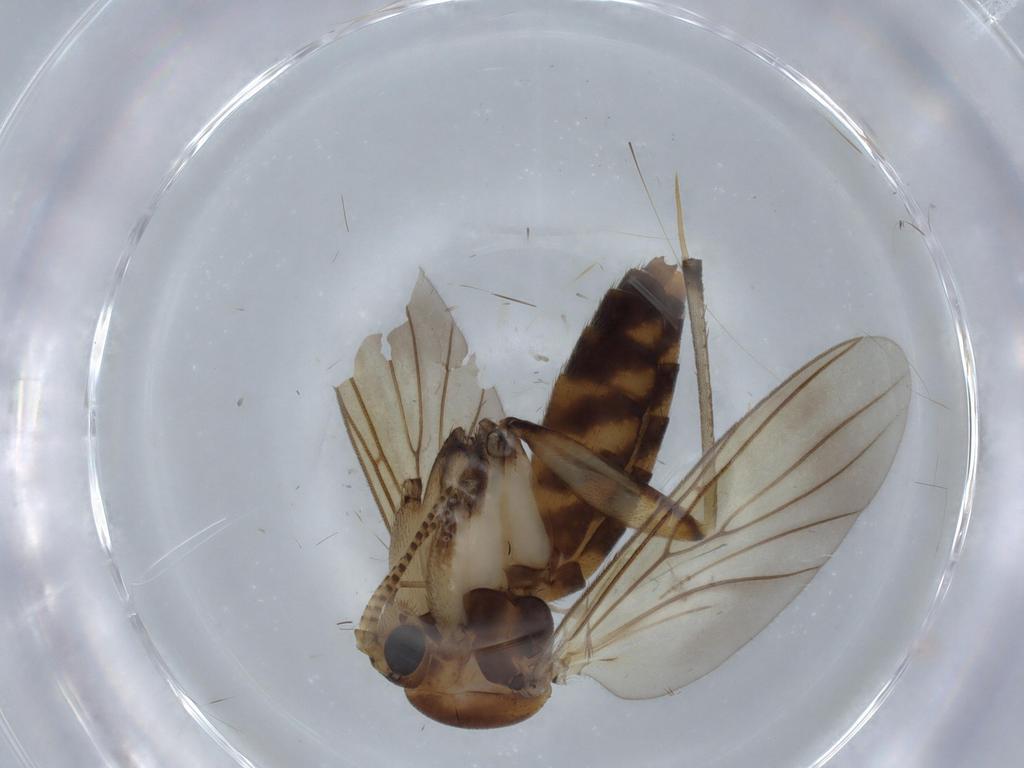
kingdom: Animalia
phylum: Arthropoda
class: Insecta
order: Diptera
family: Mycetophilidae
